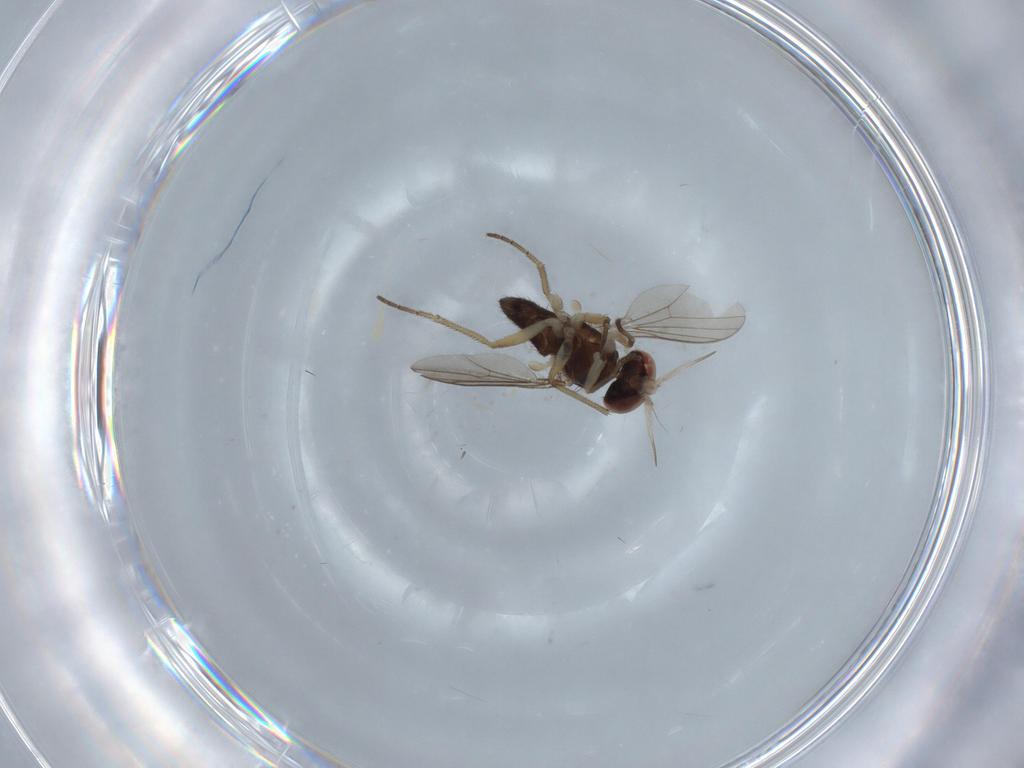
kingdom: Animalia
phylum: Arthropoda
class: Insecta
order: Diptera
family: Dolichopodidae
